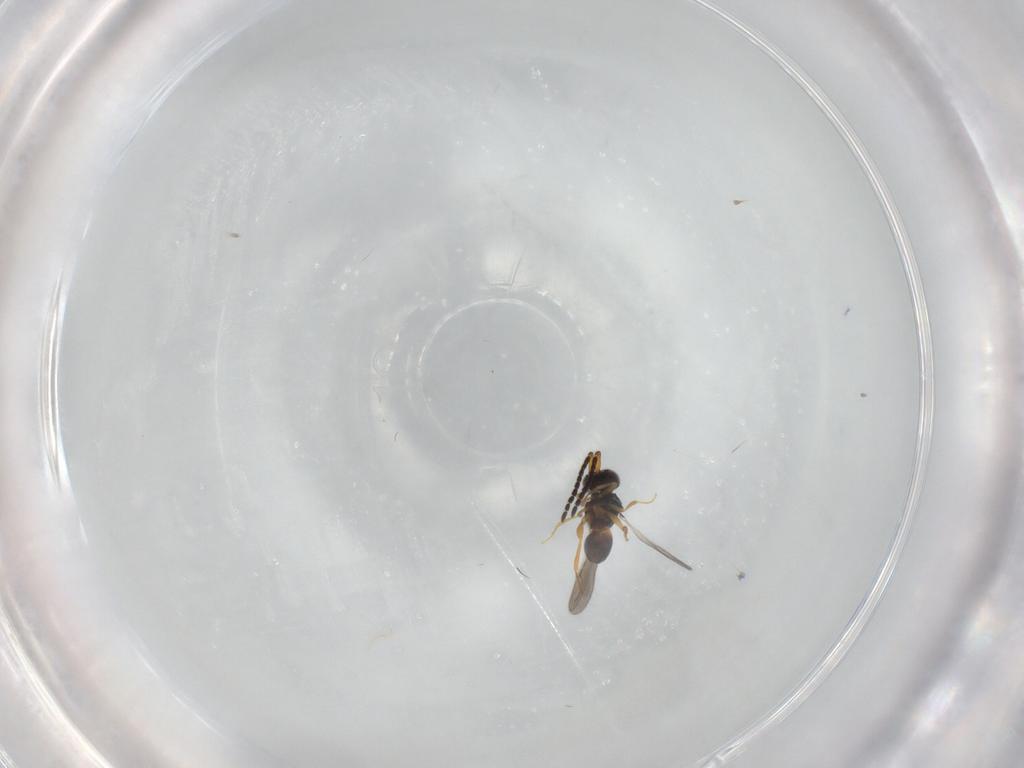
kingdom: Animalia
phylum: Arthropoda
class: Insecta
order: Hymenoptera
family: Ceraphronidae
